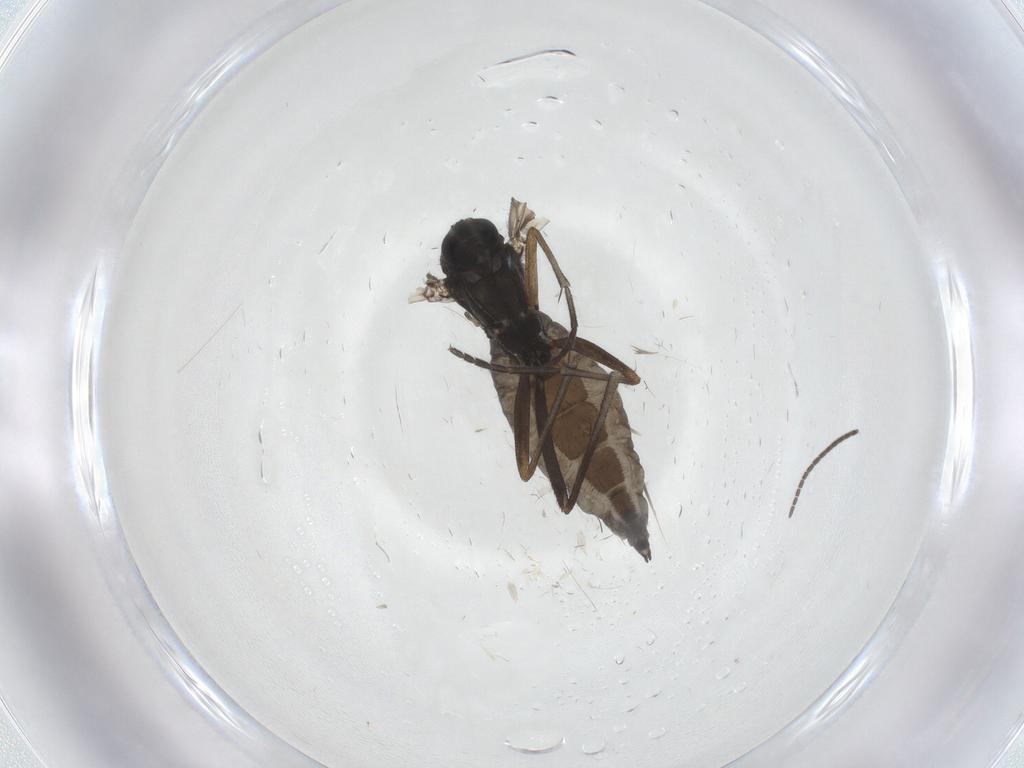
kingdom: Animalia
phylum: Arthropoda
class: Insecta
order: Diptera
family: Sciaridae
